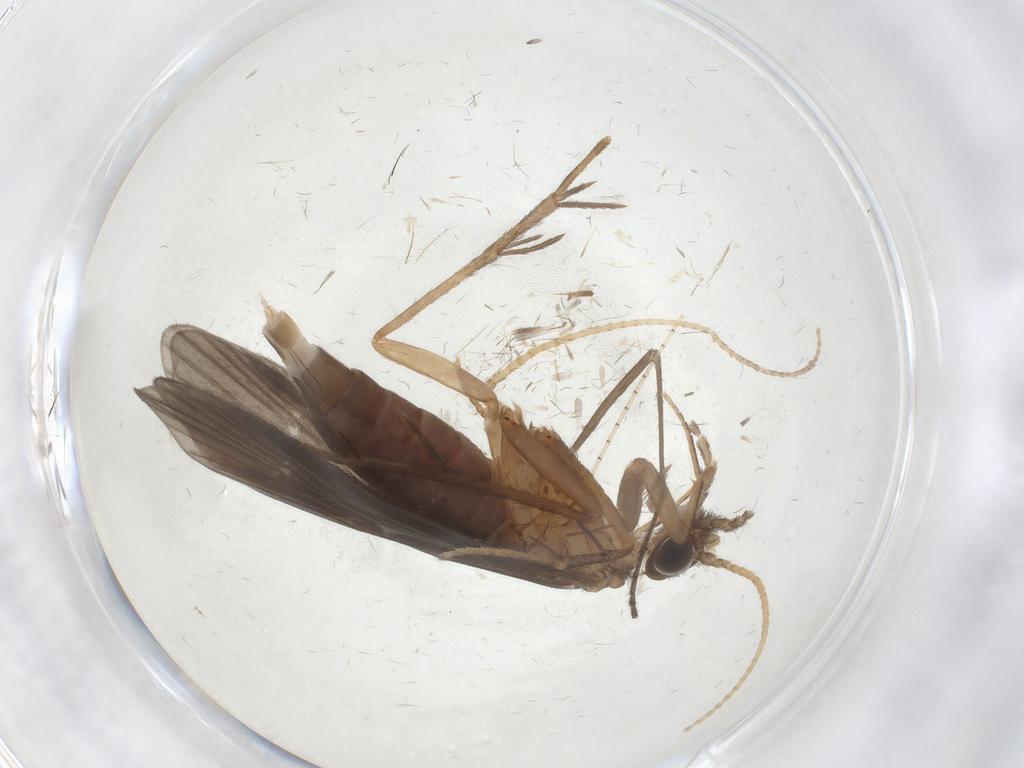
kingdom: Animalia
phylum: Arthropoda
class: Insecta
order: Trichoptera
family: Philopotamidae
